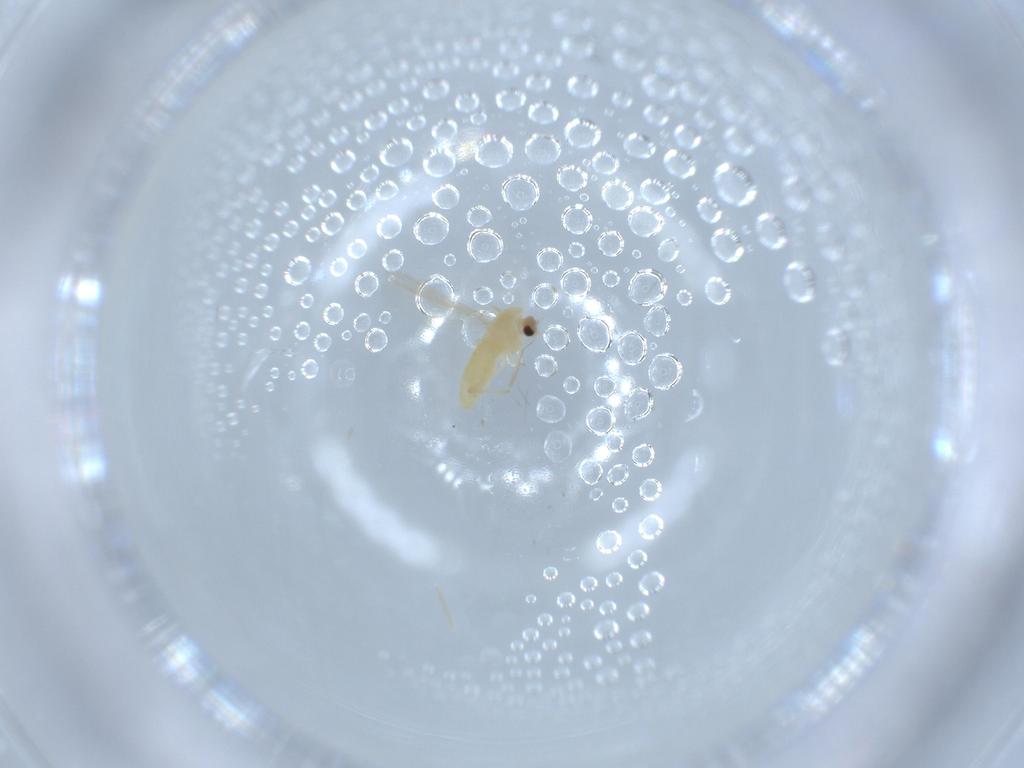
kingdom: Animalia
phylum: Arthropoda
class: Insecta
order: Diptera
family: Chironomidae
